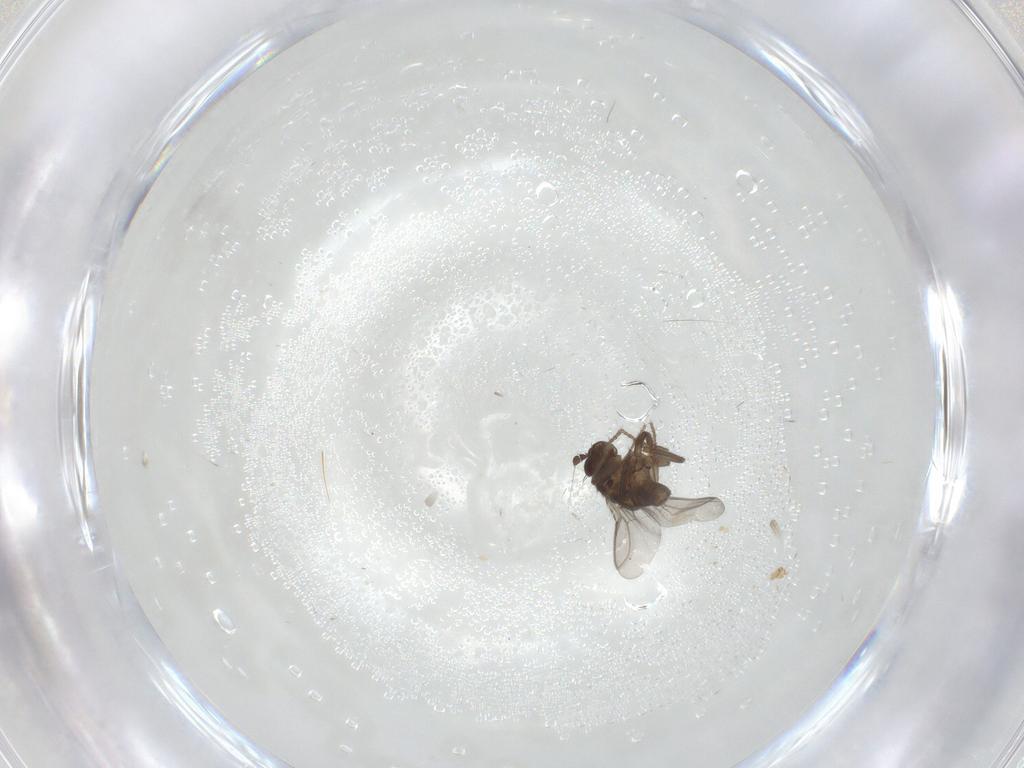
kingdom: Animalia
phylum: Arthropoda
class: Insecta
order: Diptera
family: Sphaeroceridae
